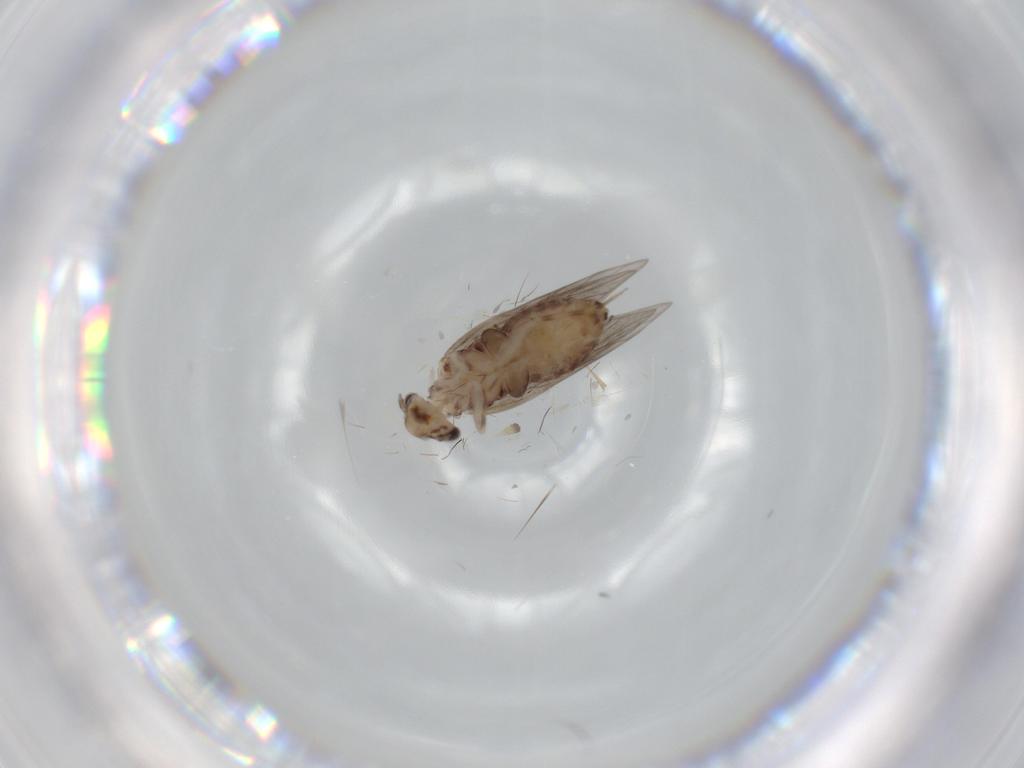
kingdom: Animalia
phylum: Arthropoda
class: Insecta
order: Psocodea
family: Lepidopsocidae
